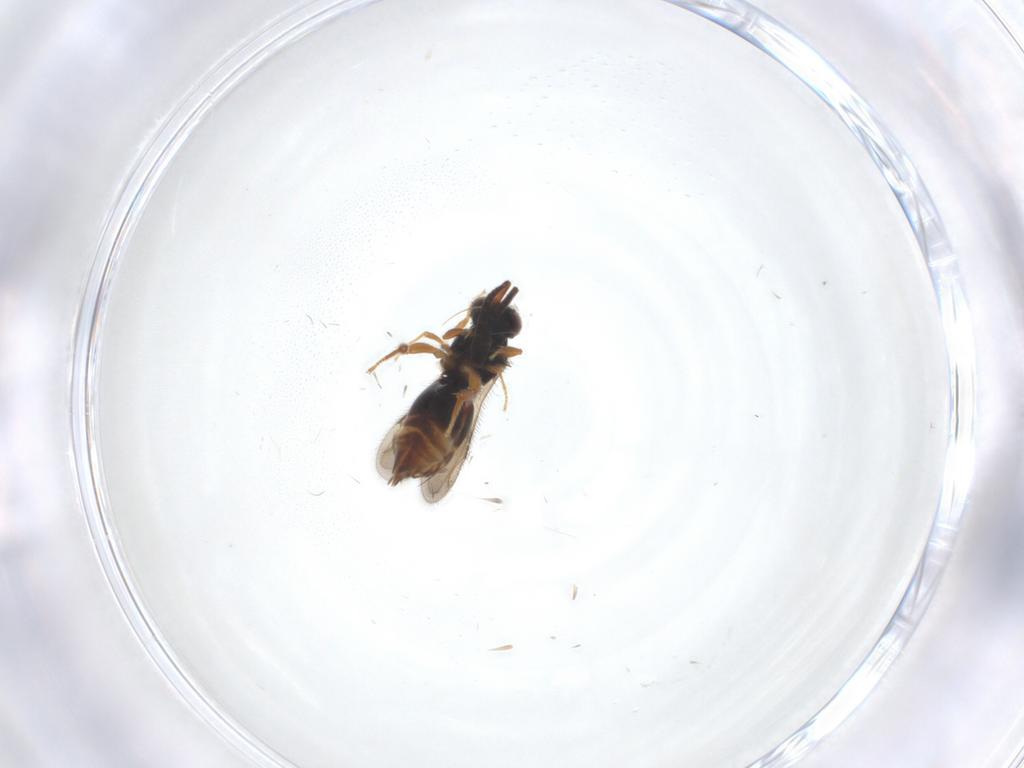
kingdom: Animalia
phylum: Arthropoda
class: Insecta
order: Hymenoptera
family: Ceraphronidae
